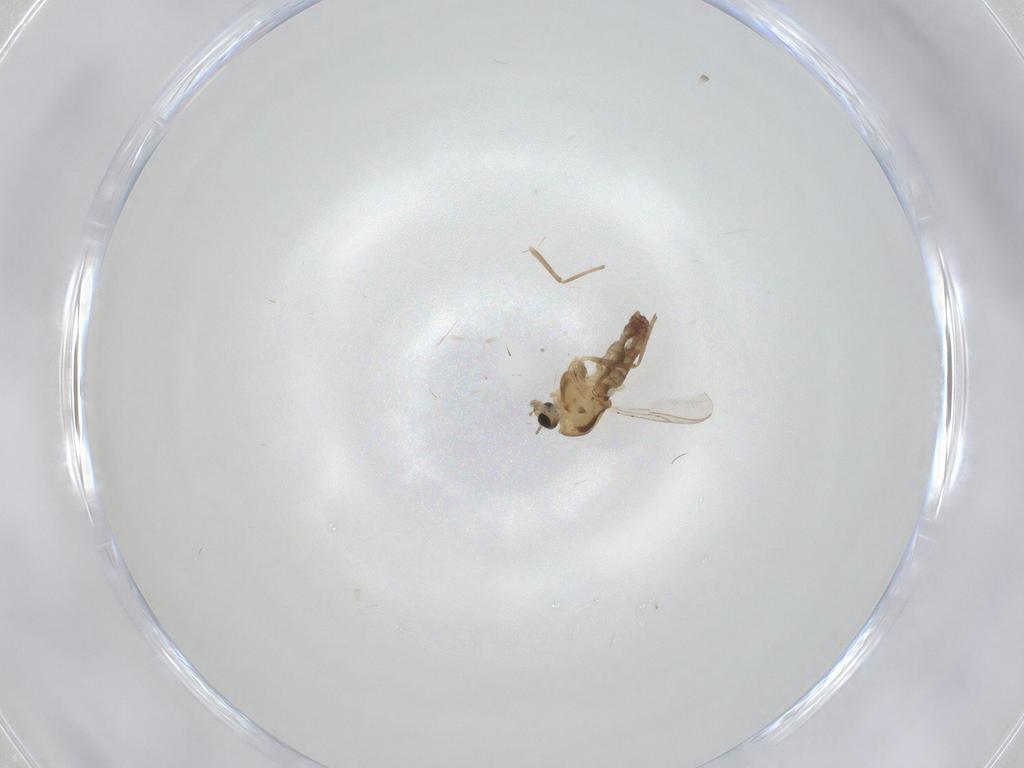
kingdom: Animalia
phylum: Arthropoda
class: Insecta
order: Diptera
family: Chironomidae
